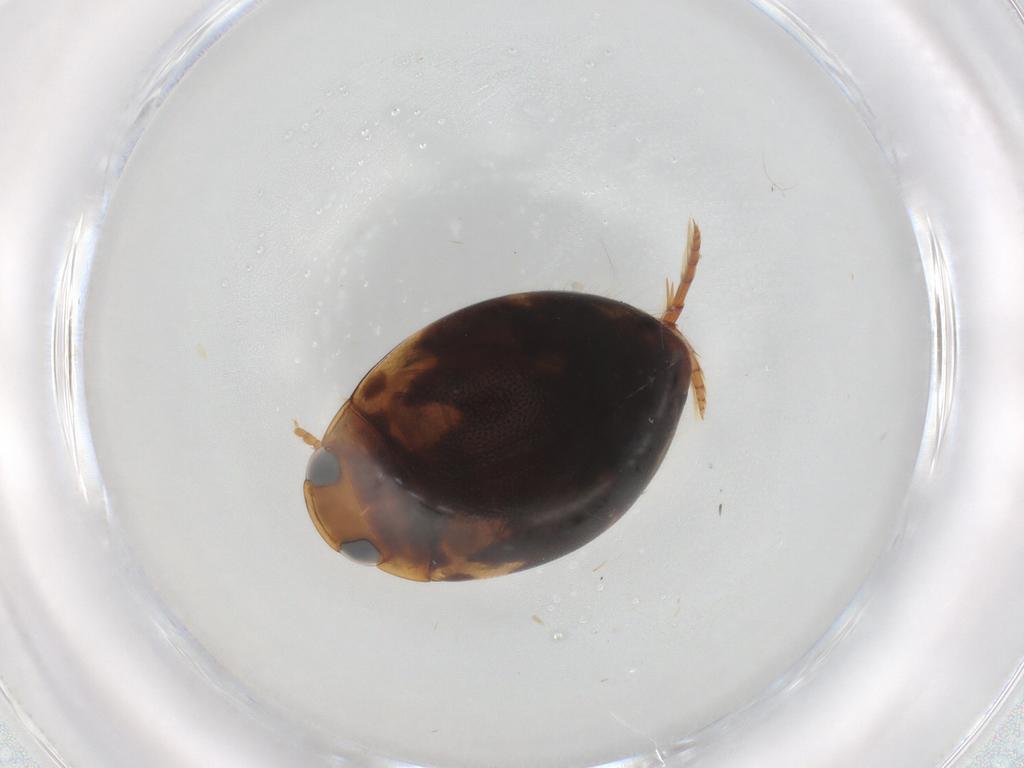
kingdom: Animalia
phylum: Arthropoda
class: Insecta
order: Coleoptera
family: Dytiscidae
